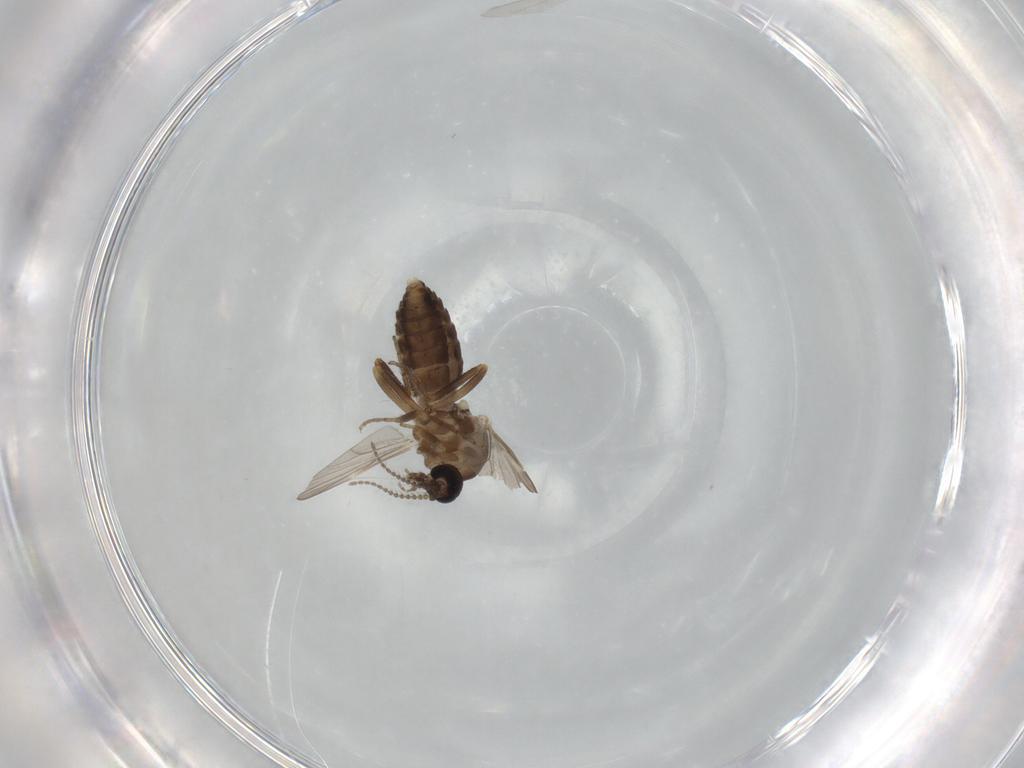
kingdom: Animalia
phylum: Arthropoda
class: Insecta
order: Diptera
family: Ceratopogonidae
